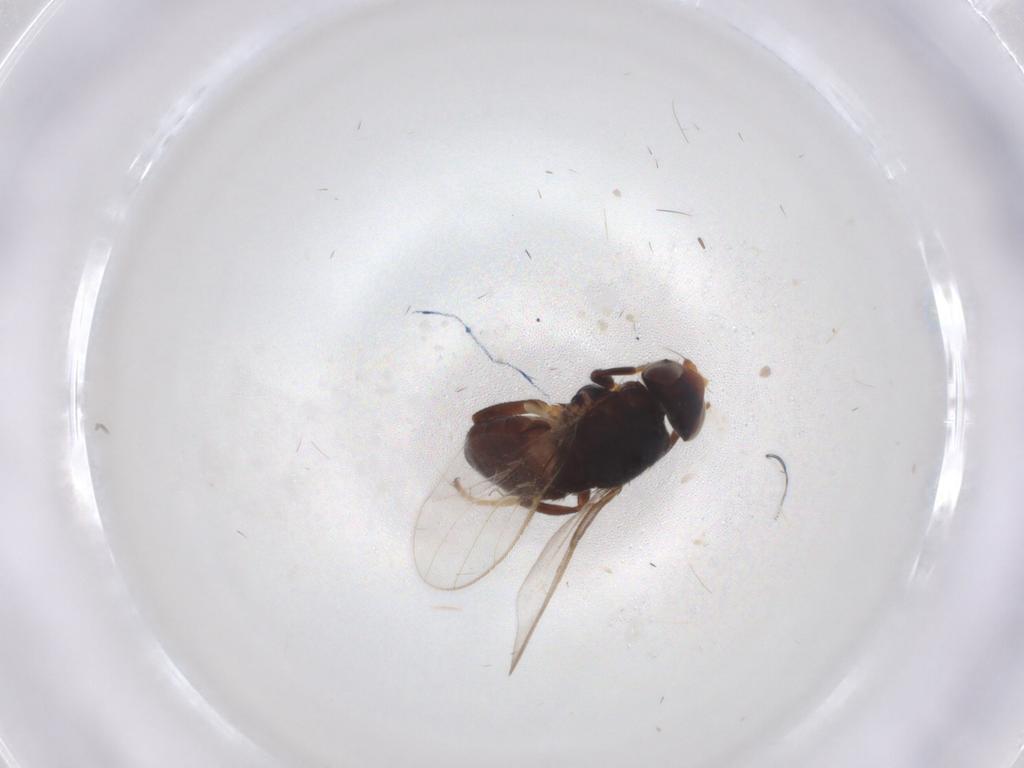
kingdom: Animalia
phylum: Arthropoda
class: Insecta
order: Diptera
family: Chloropidae
